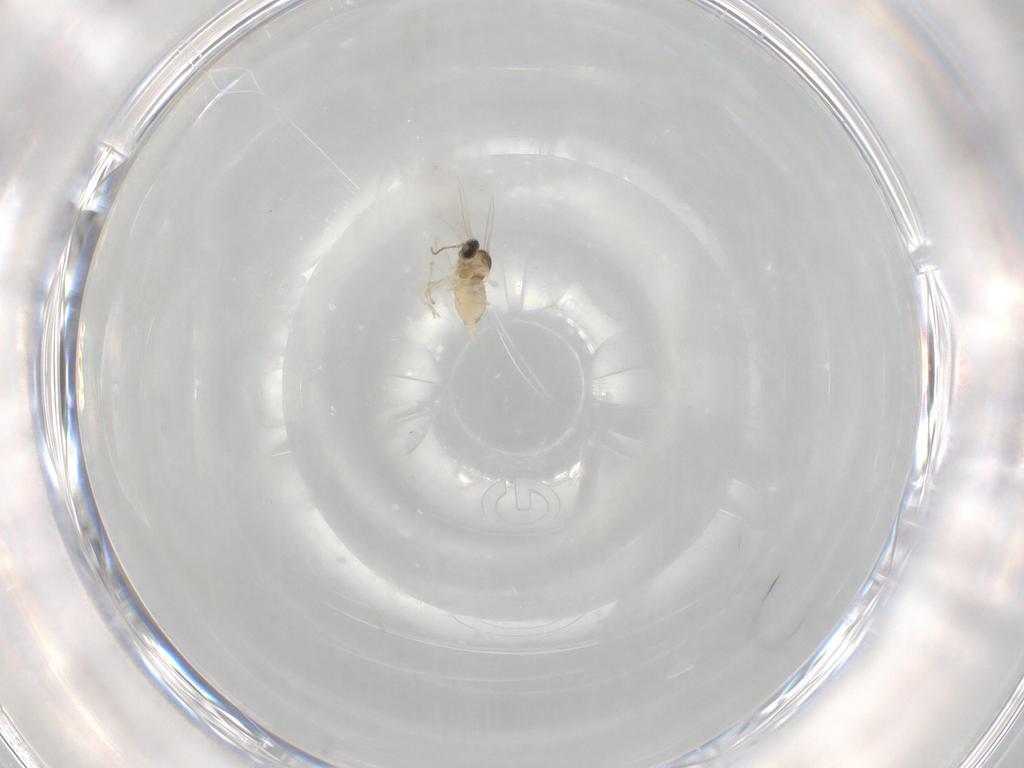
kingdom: Animalia
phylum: Arthropoda
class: Insecta
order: Diptera
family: Cecidomyiidae
